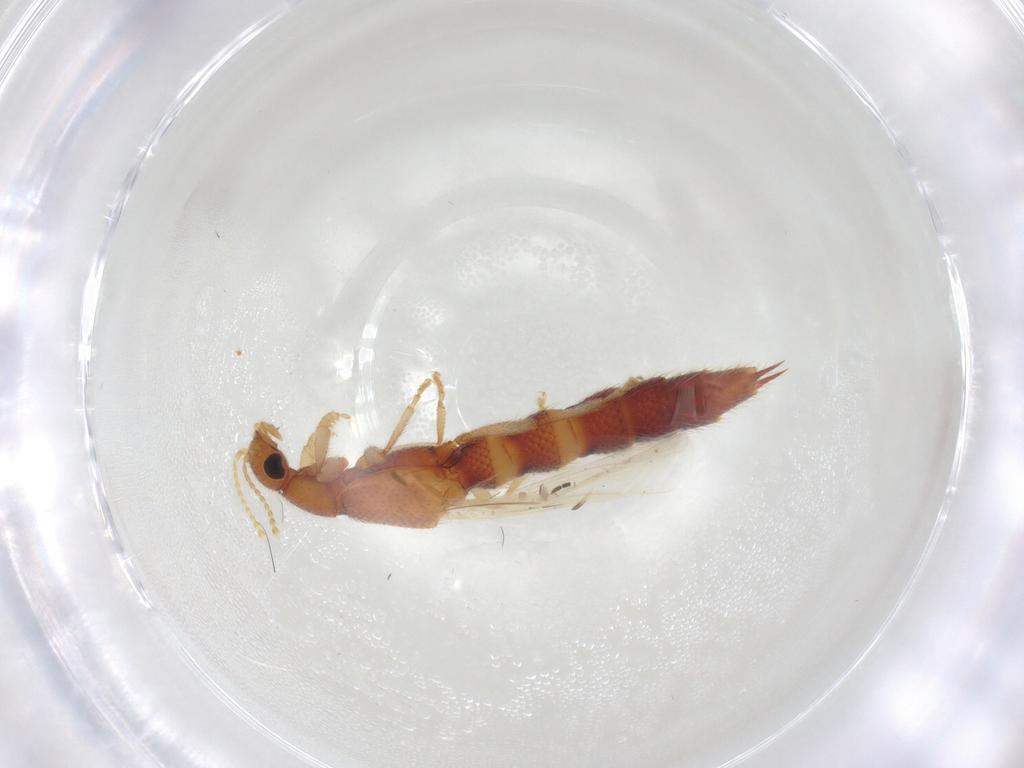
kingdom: Animalia
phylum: Arthropoda
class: Insecta
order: Coleoptera
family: Staphylinidae
